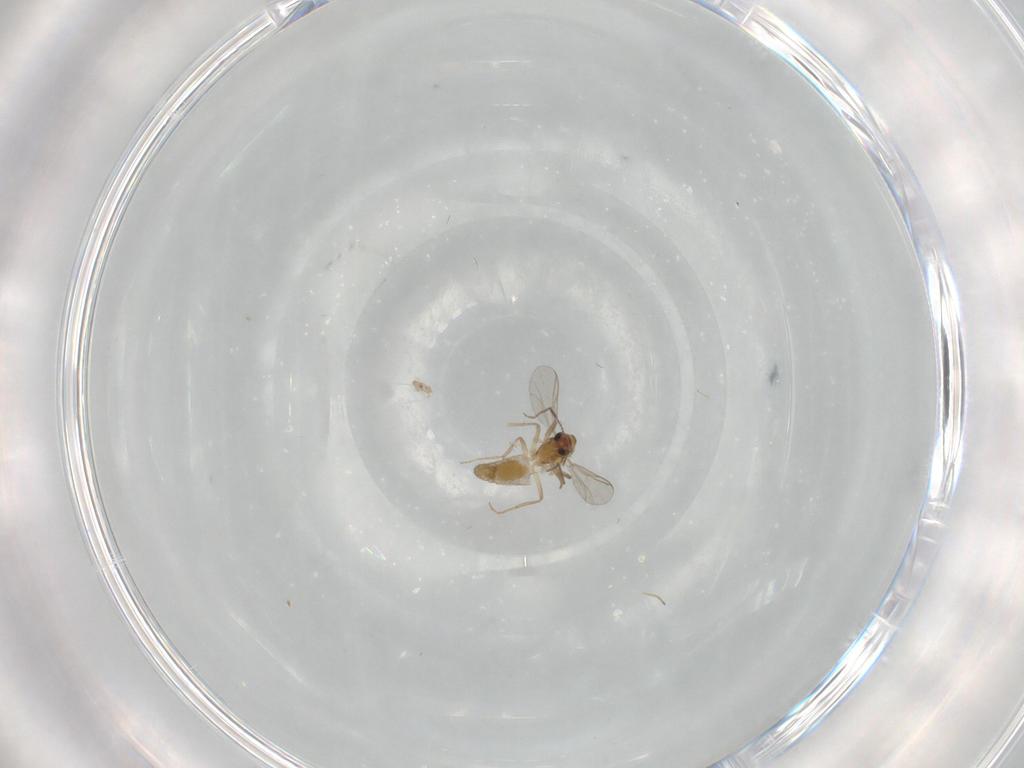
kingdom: Animalia
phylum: Arthropoda
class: Insecta
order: Diptera
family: Chironomidae
